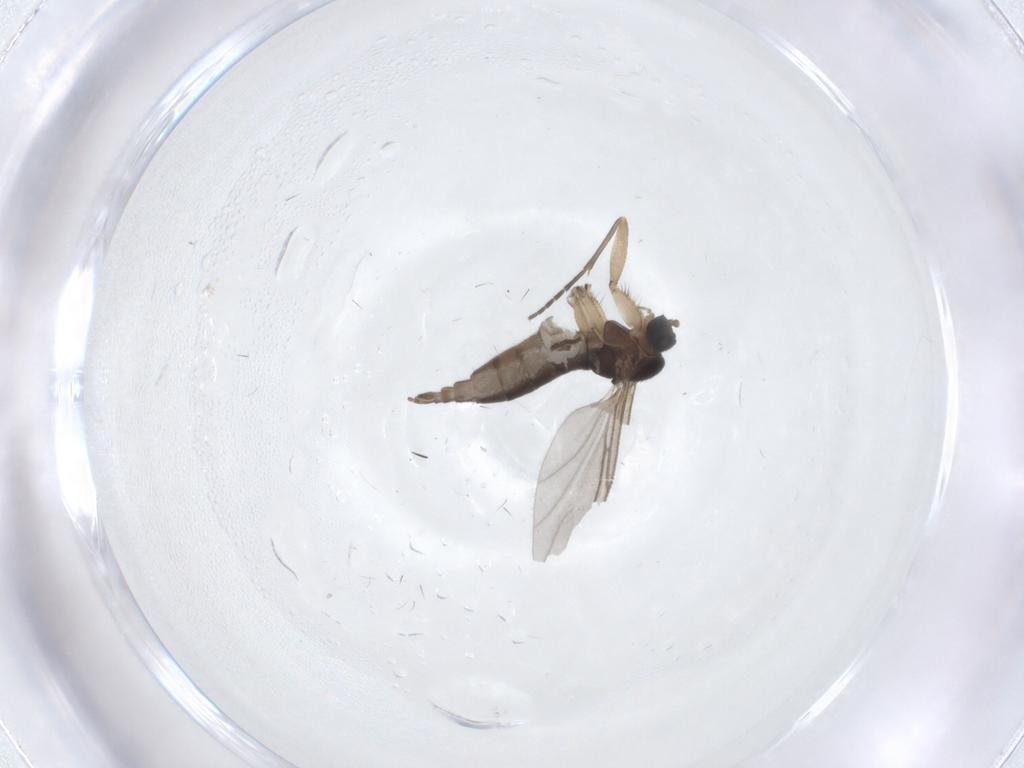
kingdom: Animalia
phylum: Arthropoda
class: Insecta
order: Diptera
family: Sciaridae
